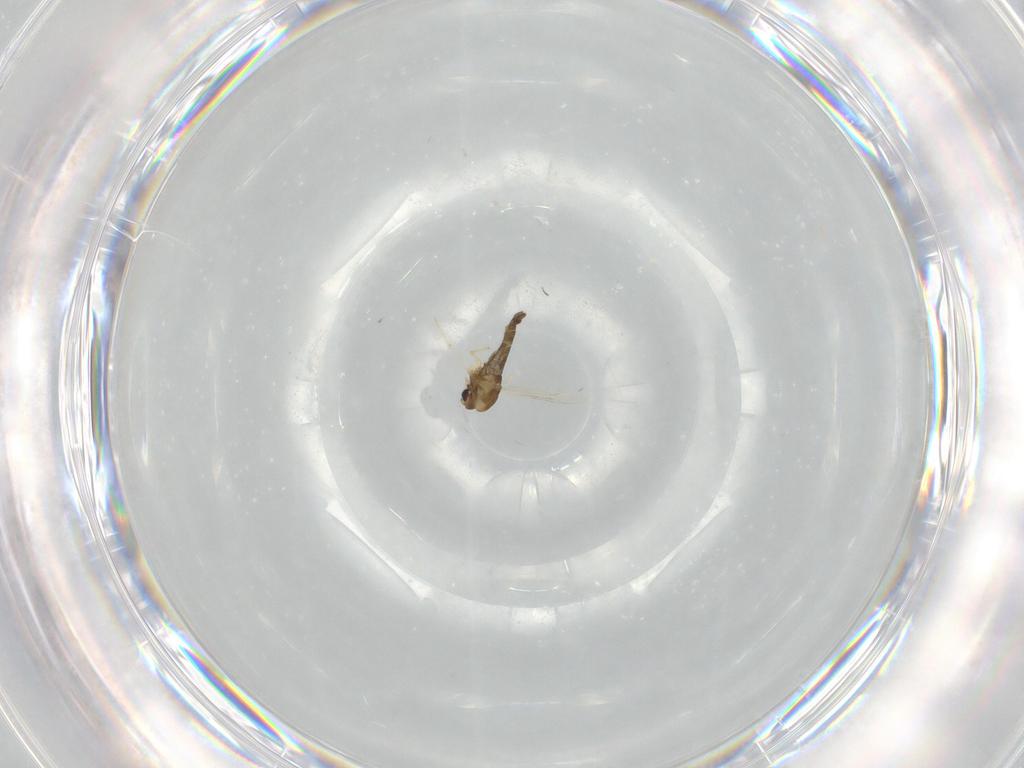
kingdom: Animalia
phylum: Arthropoda
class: Insecta
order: Diptera
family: Chironomidae
